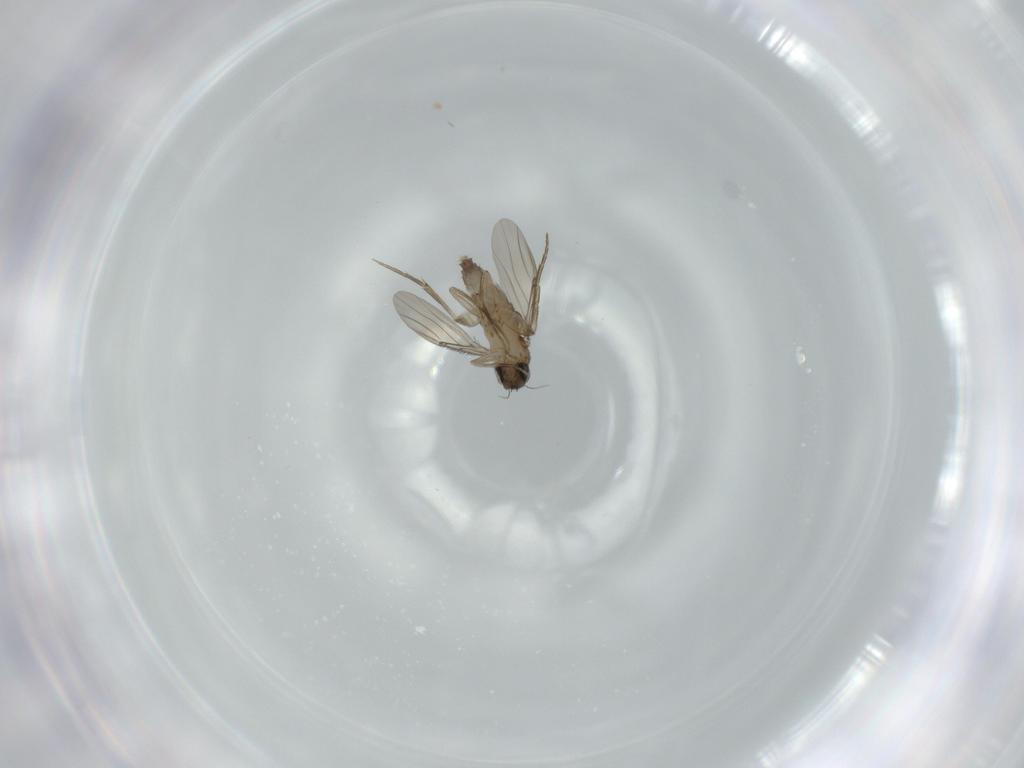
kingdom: Animalia
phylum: Arthropoda
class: Insecta
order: Diptera
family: Phoridae
